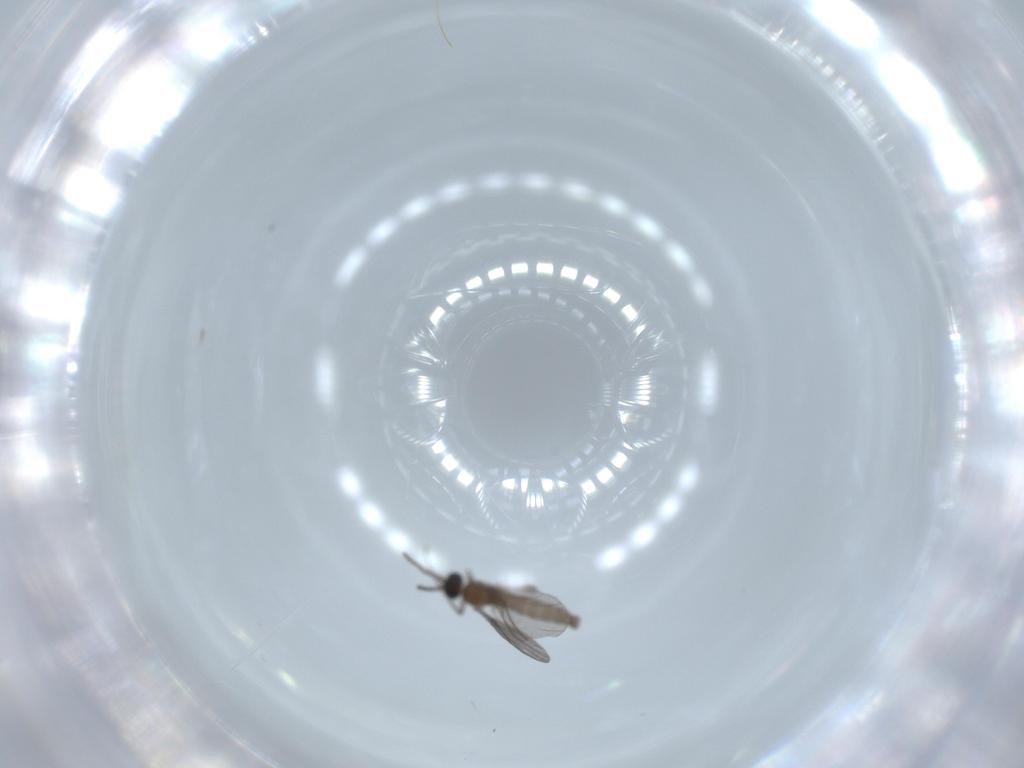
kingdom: Animalia
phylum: Arthropoda
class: Insecta
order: Diptera
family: Sciaridae
